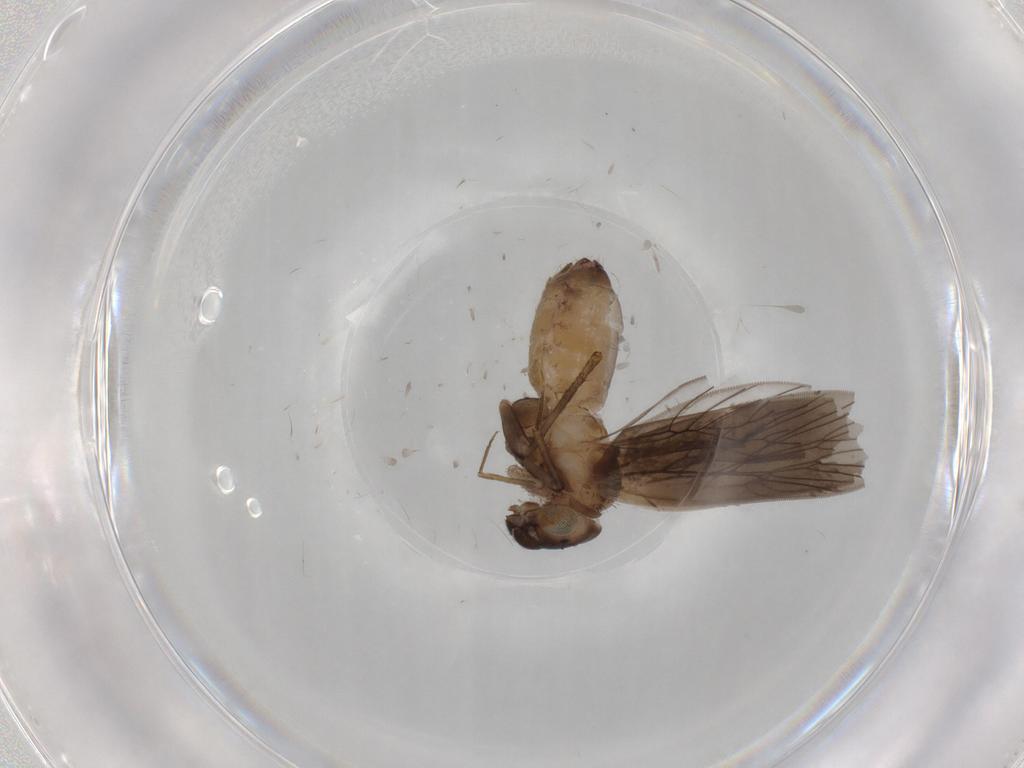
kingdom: Animalia
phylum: Arthropoda
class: Insecta
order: Psocodea
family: Lepidopsocidae
